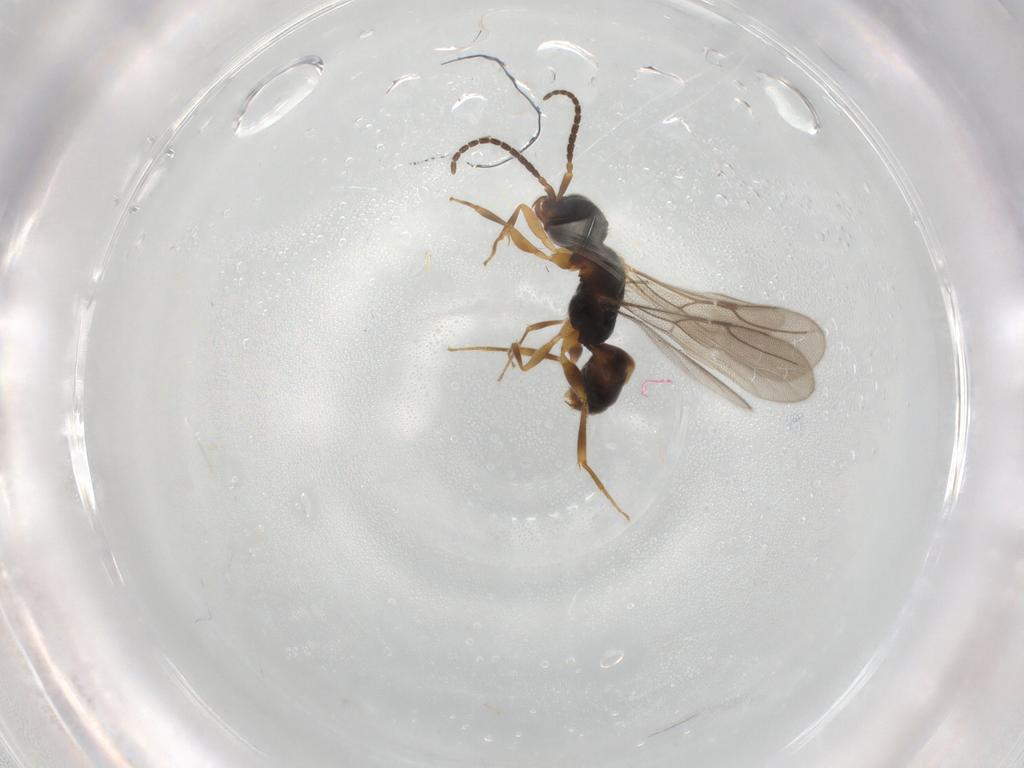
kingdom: Animalia
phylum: Arthropoda
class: Insecta
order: Hymenoptera
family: Bethylidae
